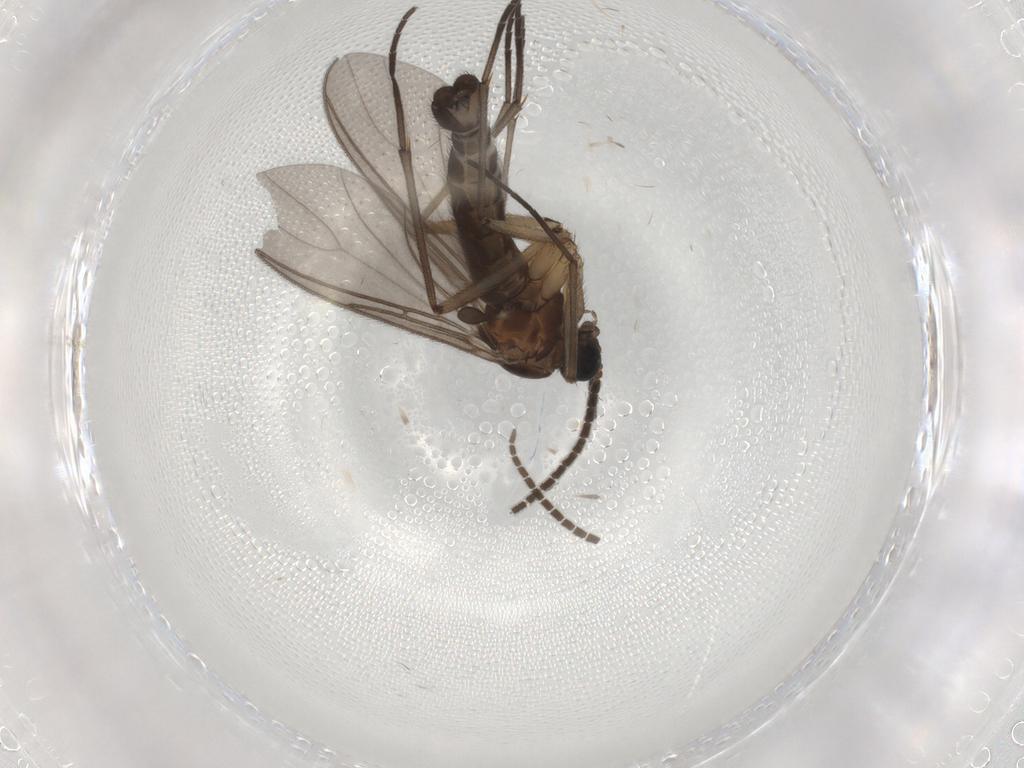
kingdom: Animalia
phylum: Arthropoda
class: Insecta
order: Diptera
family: Sciaridae
